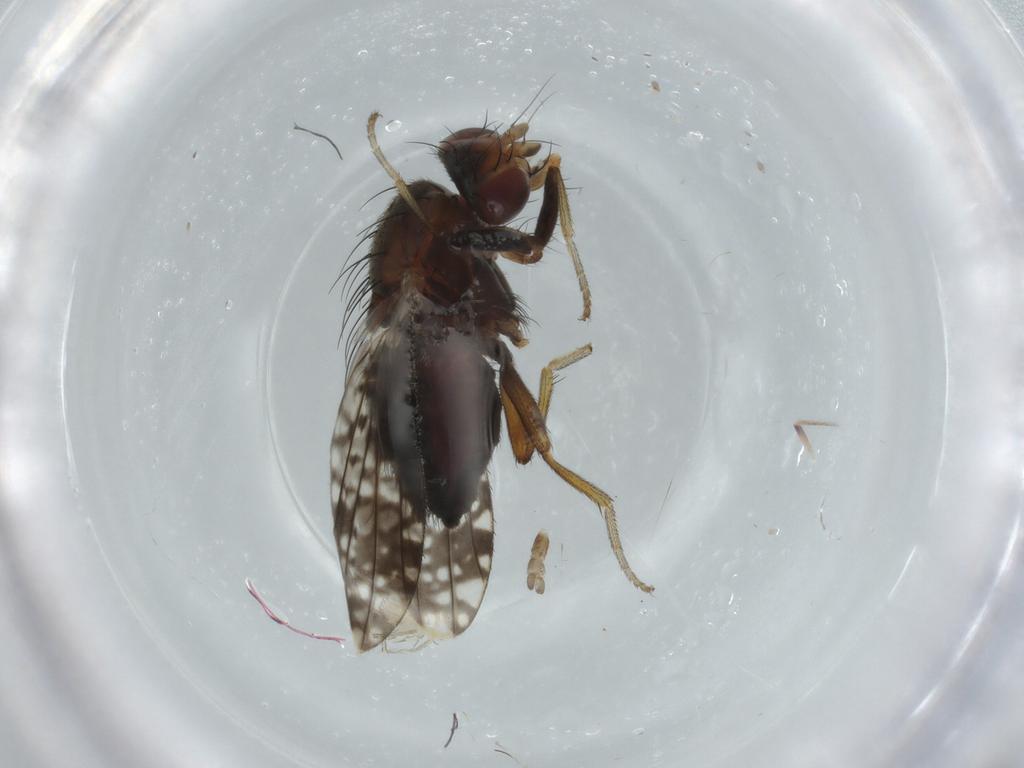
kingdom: Animalia
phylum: Arthropoda
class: Insecta
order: Diptera
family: Tephritidae
